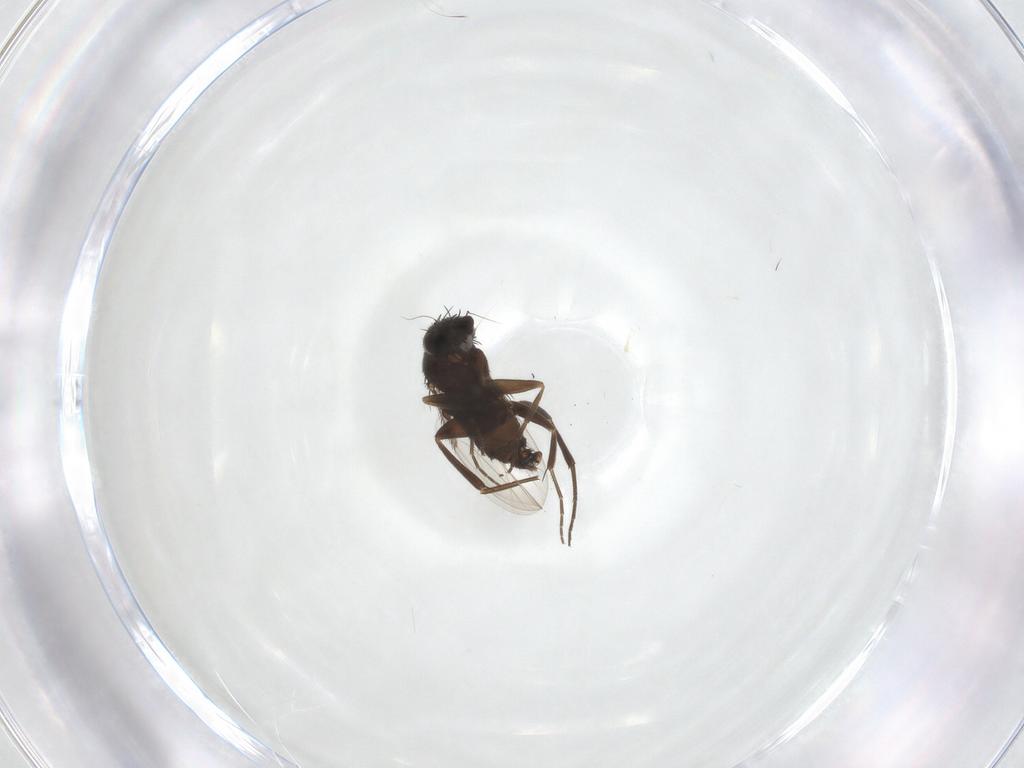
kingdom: Animalia
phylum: Arthropoda
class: Insecta
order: Diptera
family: Phoridae
